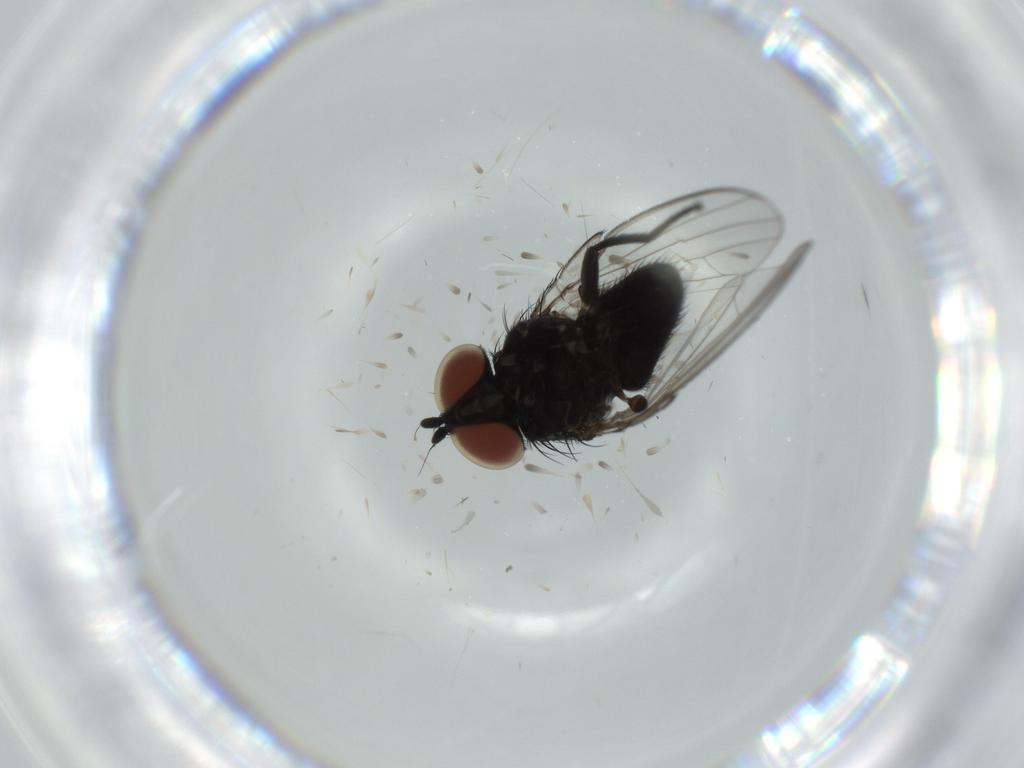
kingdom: Animalia
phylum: Arthropoda
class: Insecta
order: Diptera
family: Milichiidae
